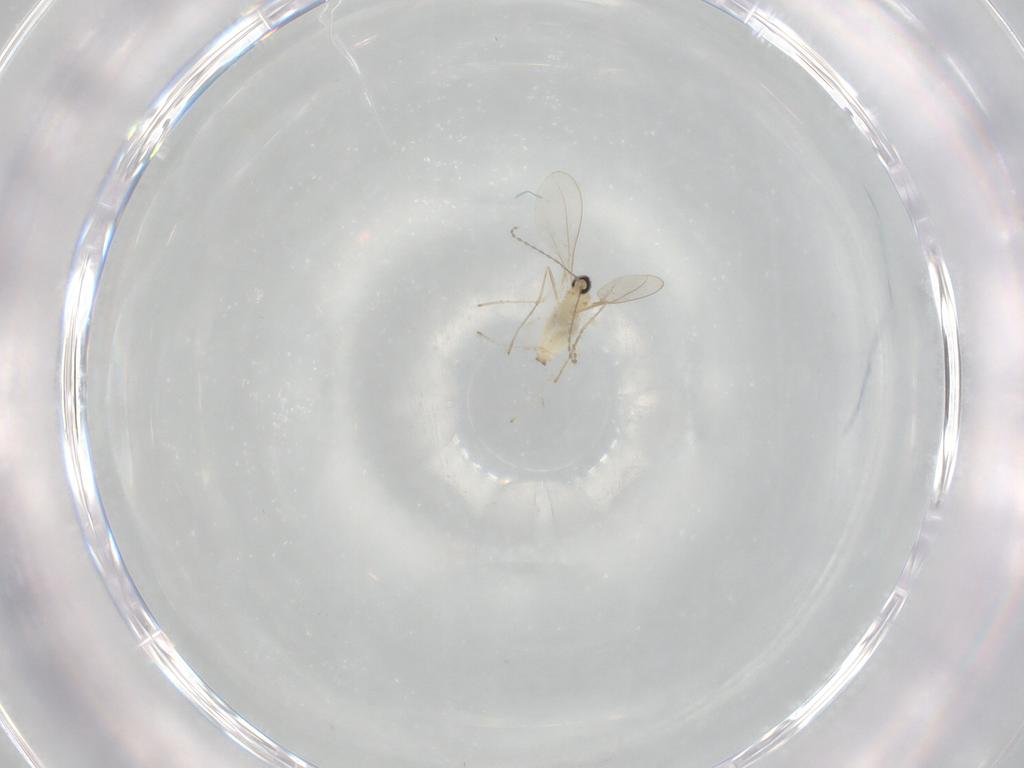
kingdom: Animalia
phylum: Arthropoda
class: Insecta
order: Diptera
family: Cecidomyiidae
